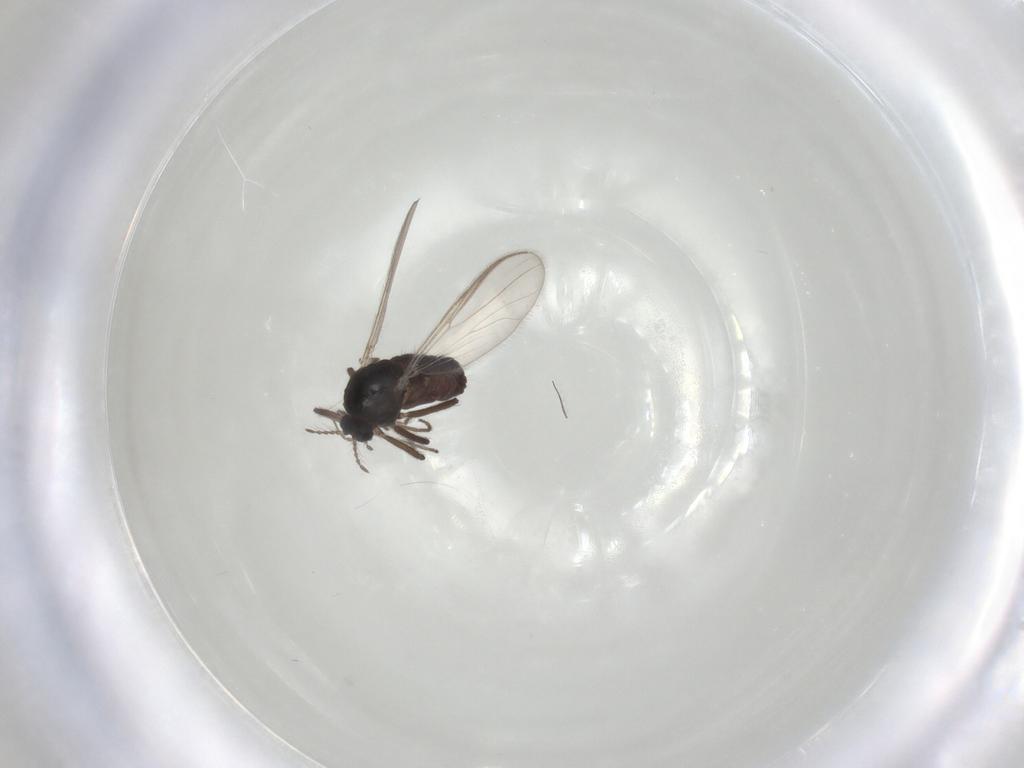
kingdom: Animalia
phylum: Arthropoda
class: Insecta
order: Diptera
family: Chironomidae
